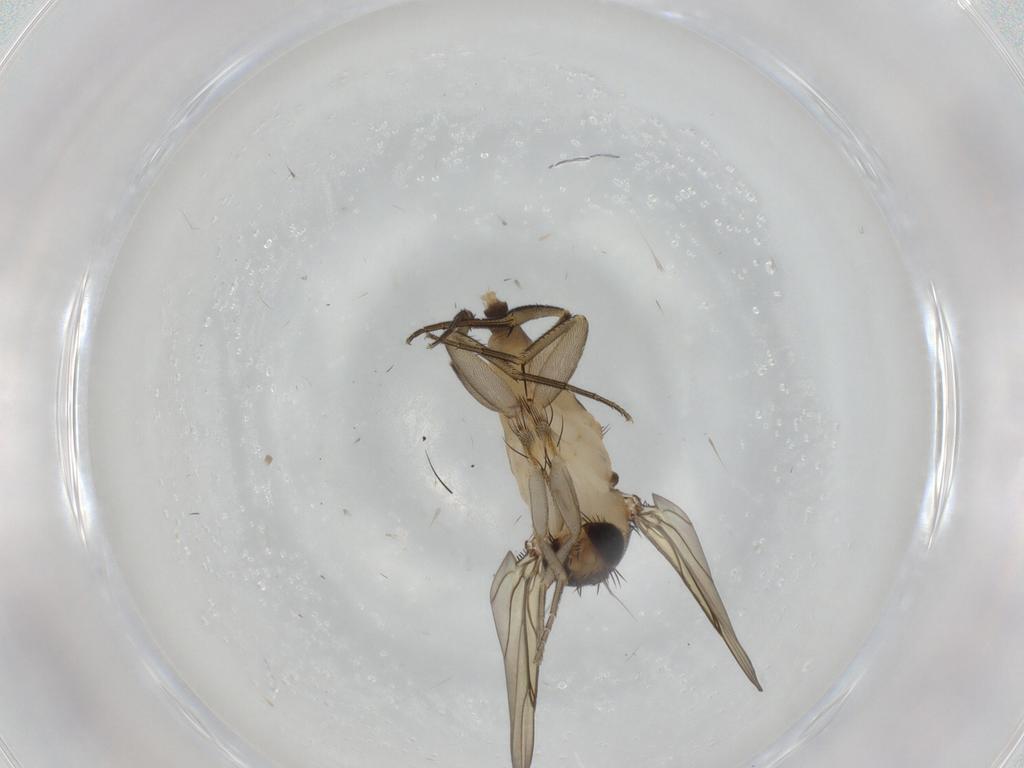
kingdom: Animalia
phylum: Arthropoda
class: Insecta
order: Diptera
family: Phoridae
